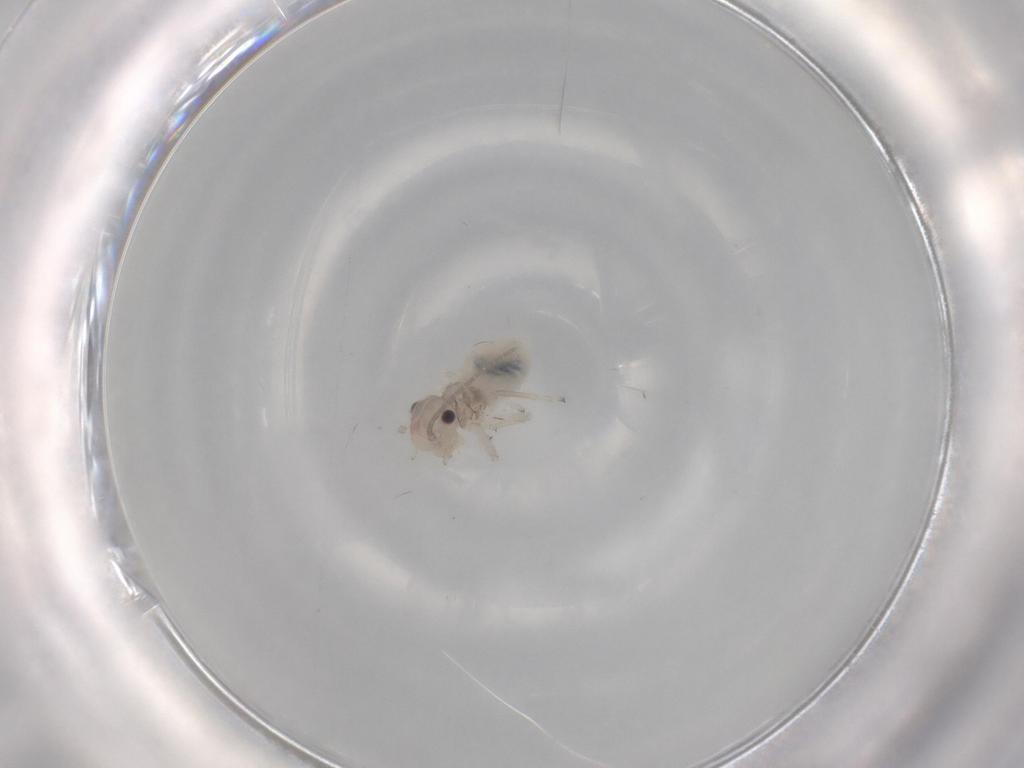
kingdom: Animalia
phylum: Arthropoda
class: Insecta
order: Psocodea
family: Amphipsocidae
